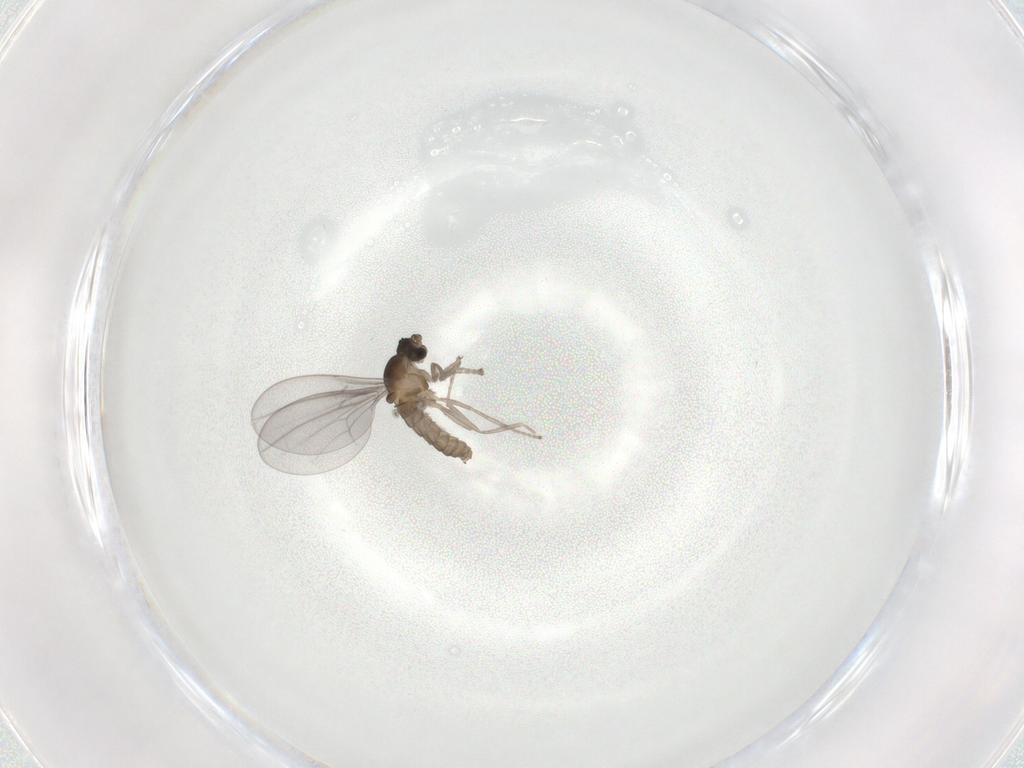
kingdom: Animalia
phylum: Arthropoda
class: Insecta
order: Diptera
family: Cecidomyiidae
